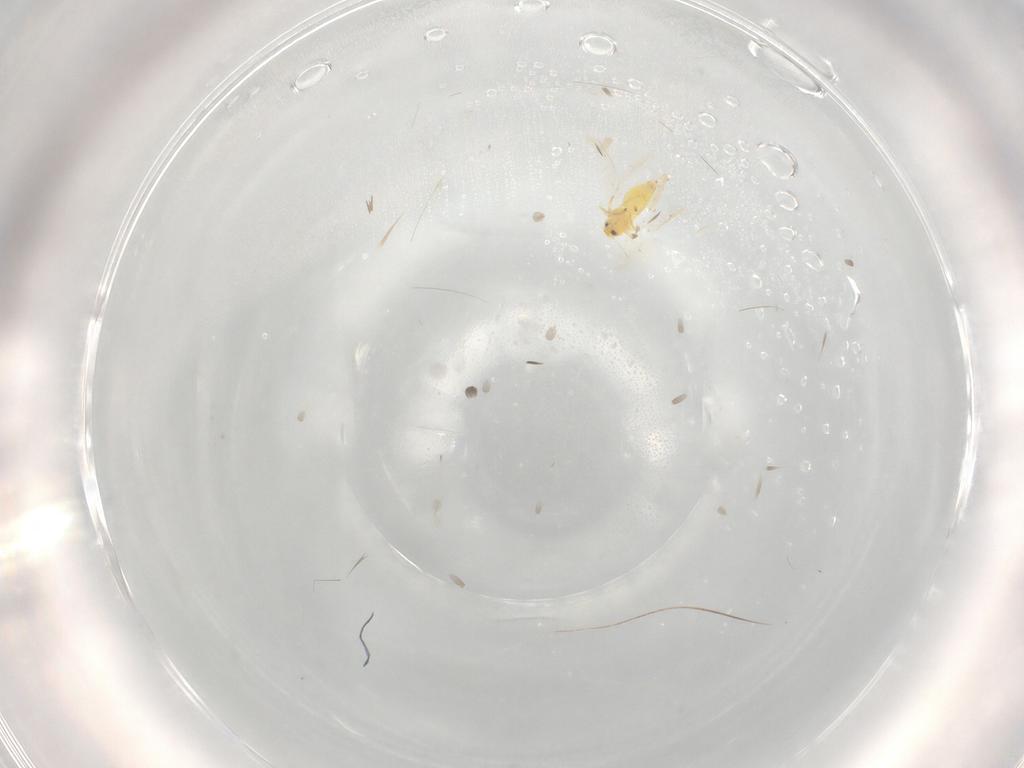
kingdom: Animalia
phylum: Arthropoda
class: Insecta
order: Hemiptera
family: Aleyrodidae
